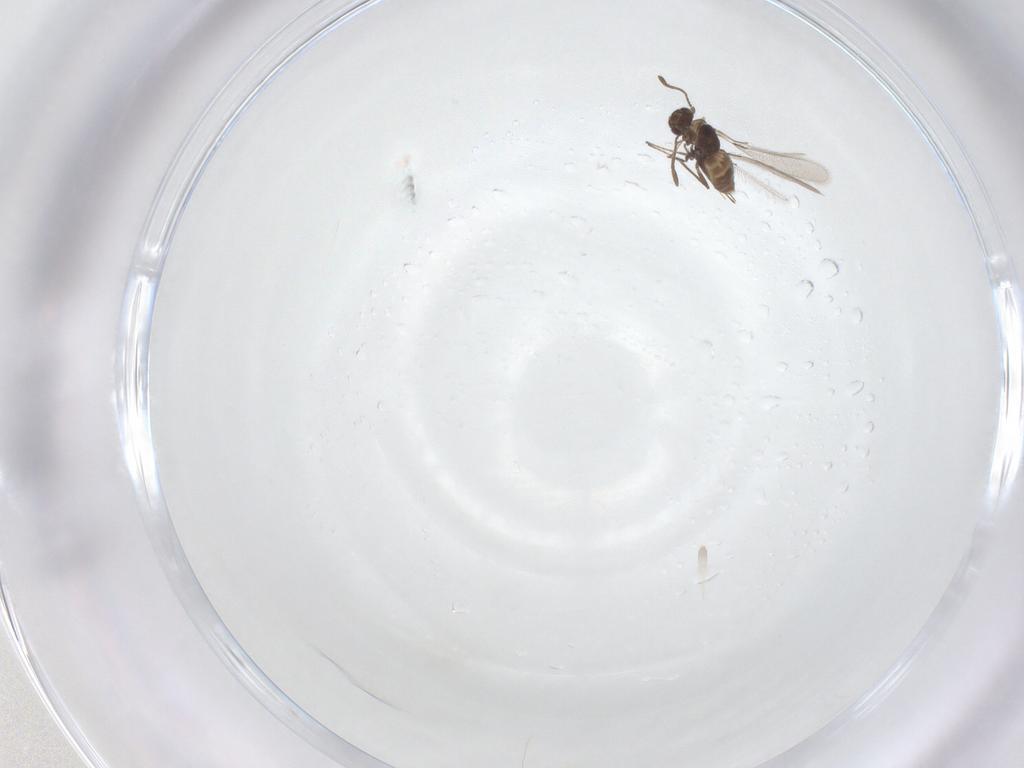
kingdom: Animalia
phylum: Arthropoda
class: Insecta
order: Hymenoptera
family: Mymaridae
